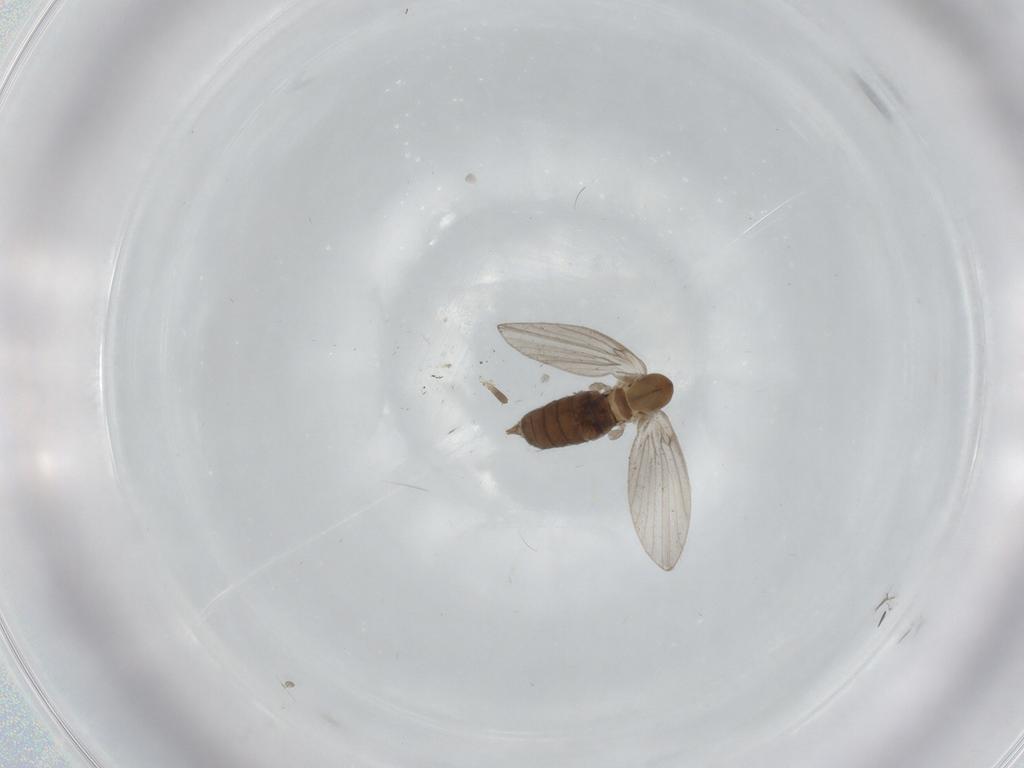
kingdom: Animalia
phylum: Arthropoda
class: Insecta
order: Diptera
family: Psychodidae
